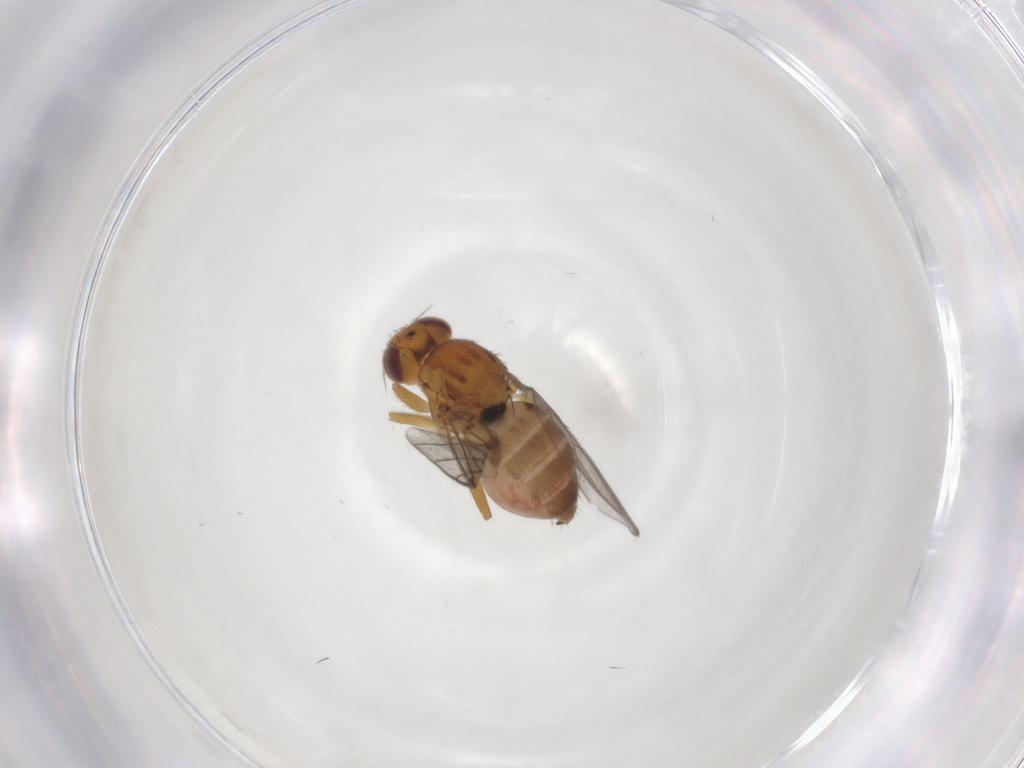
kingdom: Animalia
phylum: Arthropoda
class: Insecta
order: Diptera
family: Chloropidae
